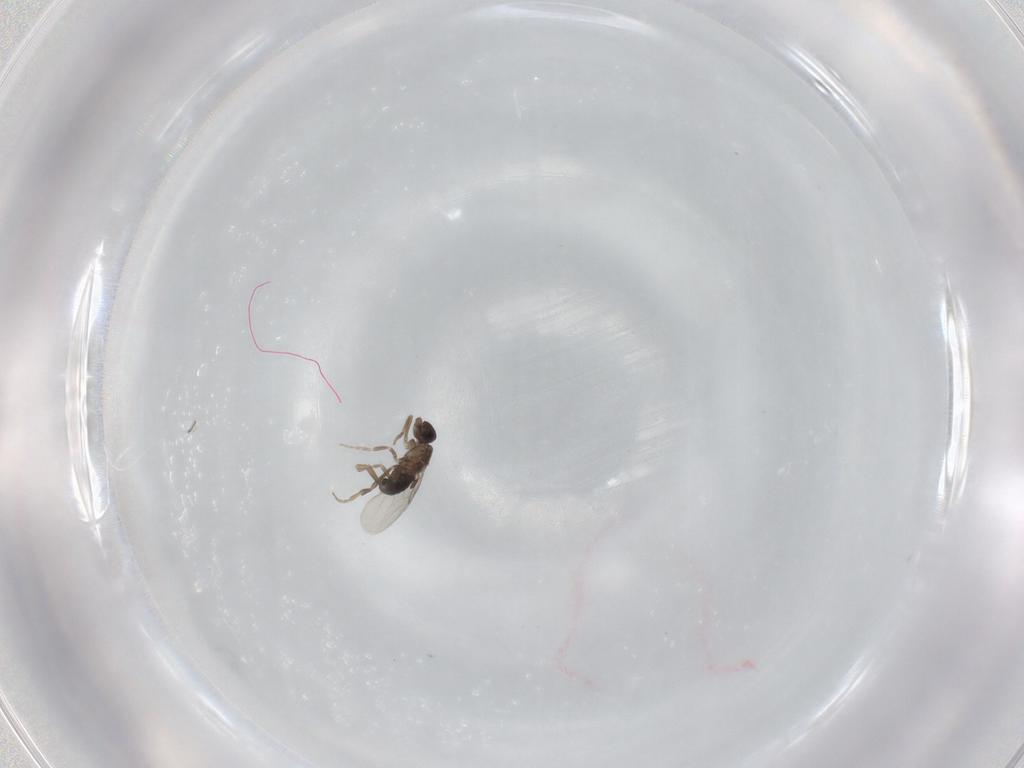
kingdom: Animalia
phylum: Arthropoda
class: Insecta
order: Diptera
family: Phoridae
